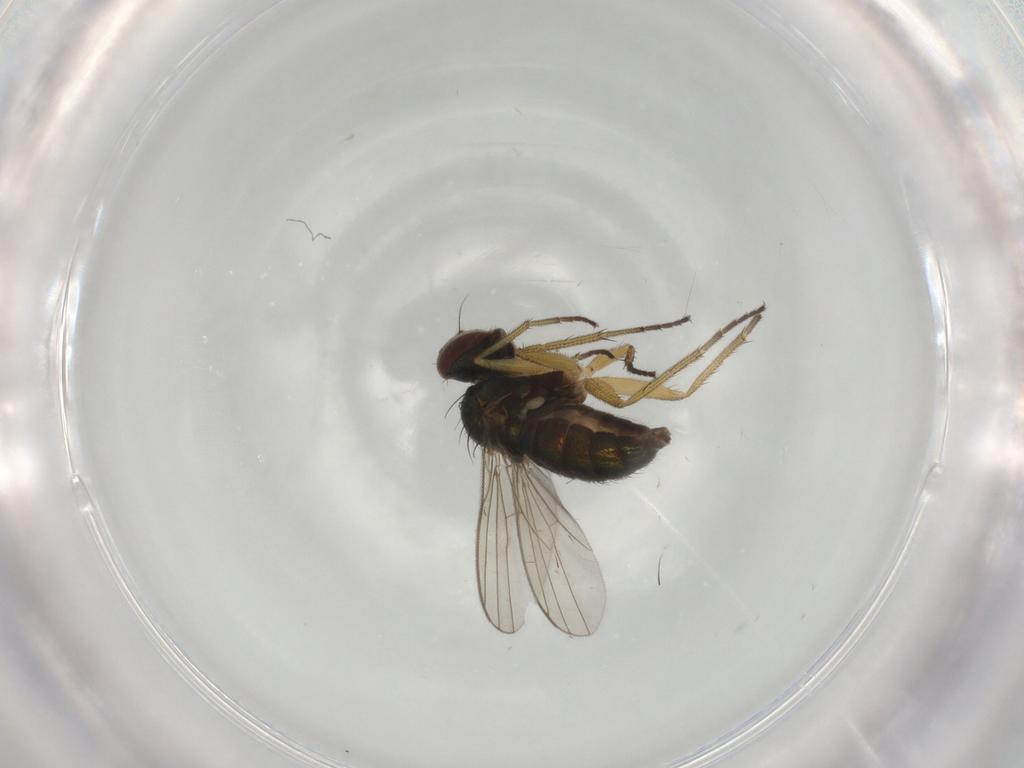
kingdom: Animalia
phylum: Arthropoda
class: Insecta
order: Diptera
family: Dolichopodidae
